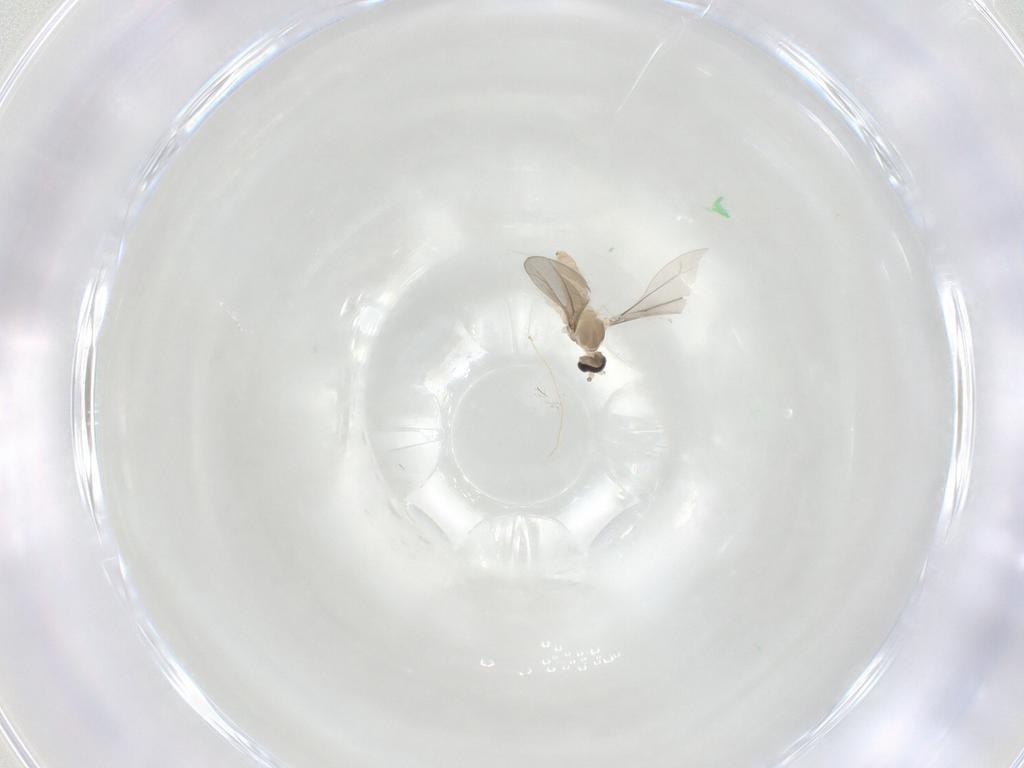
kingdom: Animalia
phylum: Arthropoda
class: Insecta
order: Diptera
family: Cecidomyiidae
